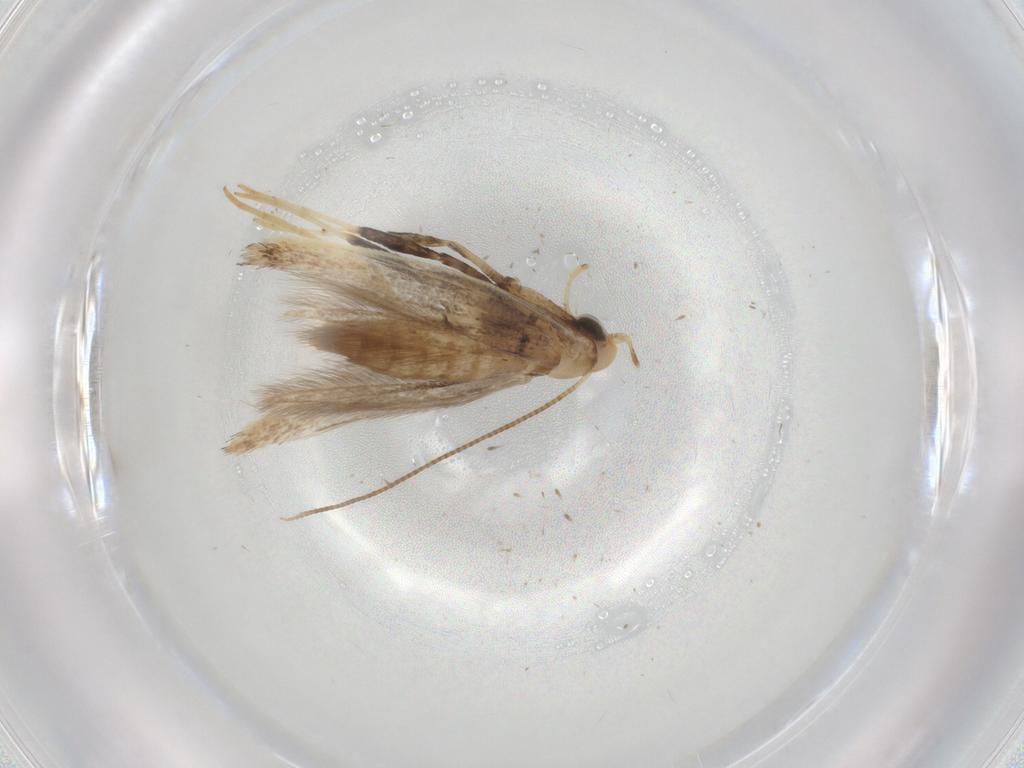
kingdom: Animalia
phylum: Arthropoda
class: Insecta
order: Lepidoptera
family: Gracillariidae
